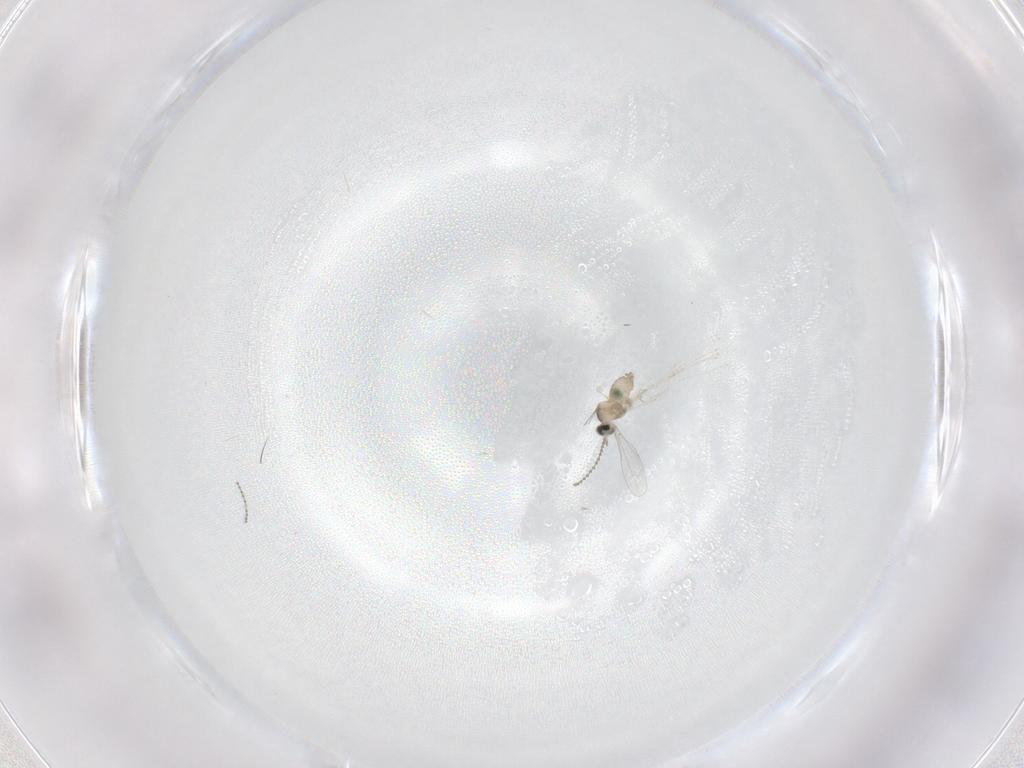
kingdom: Animalia
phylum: Arthropoda
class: Insecta
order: Diptera
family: Cecidomyiidae
